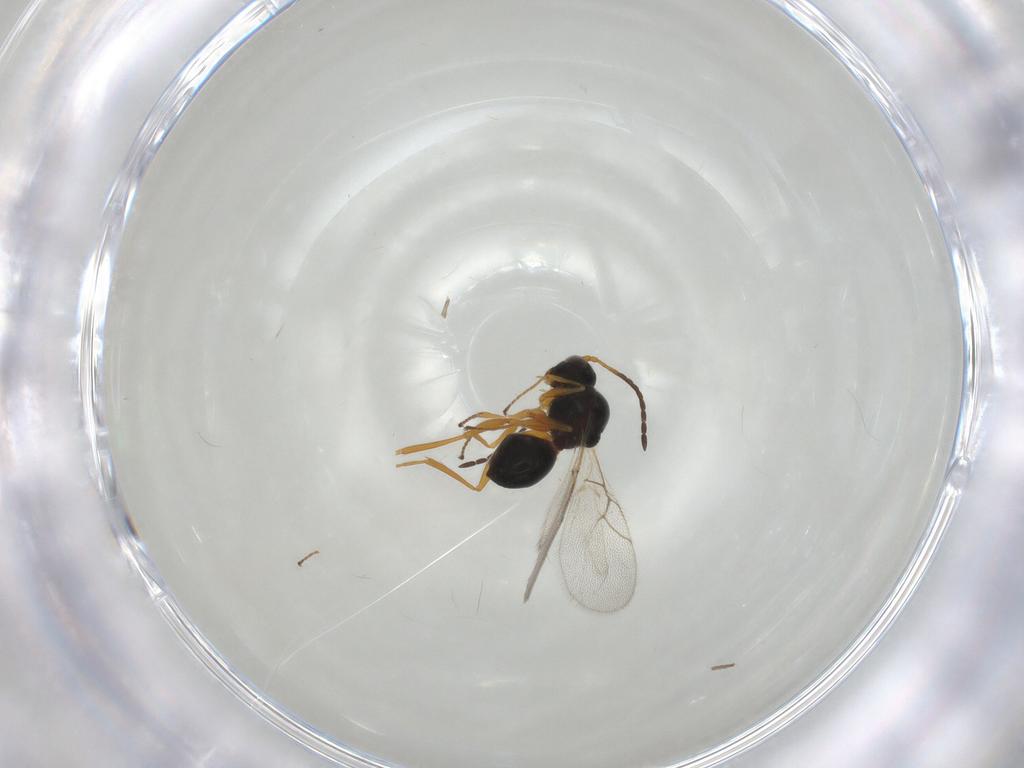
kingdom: Animalia
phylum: Arthropoda
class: Insecta
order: Hymenoptera
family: Figitidae
